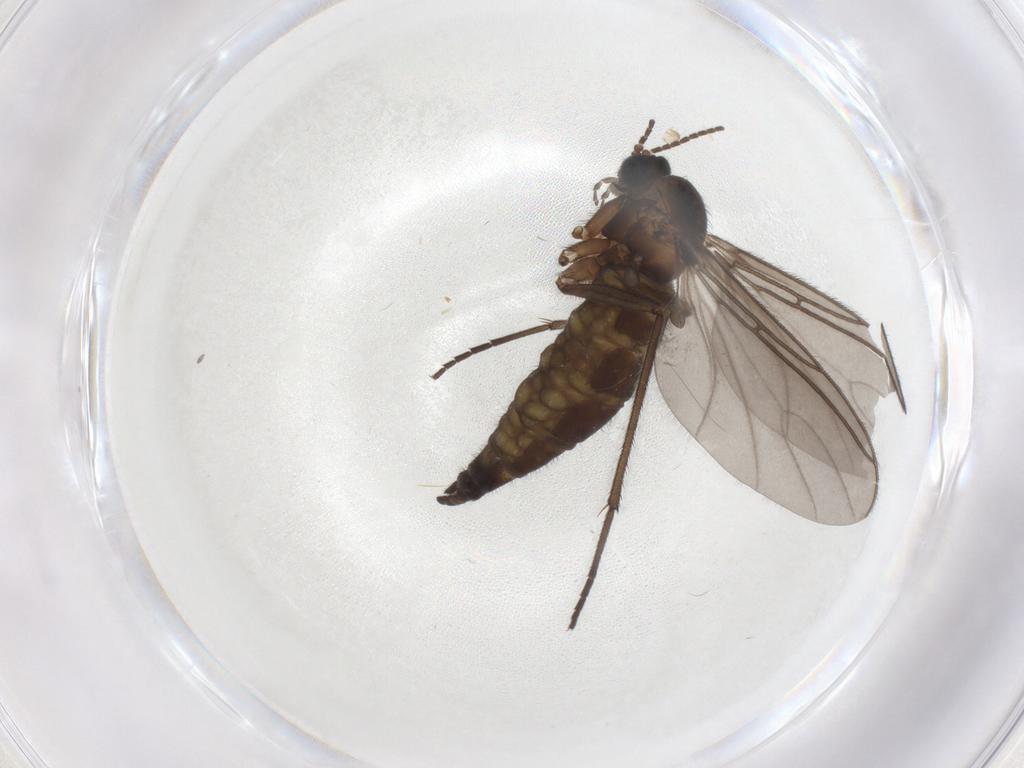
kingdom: Animalia
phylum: Arthropoda
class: Insecta
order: Diptera
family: Sciaridae
